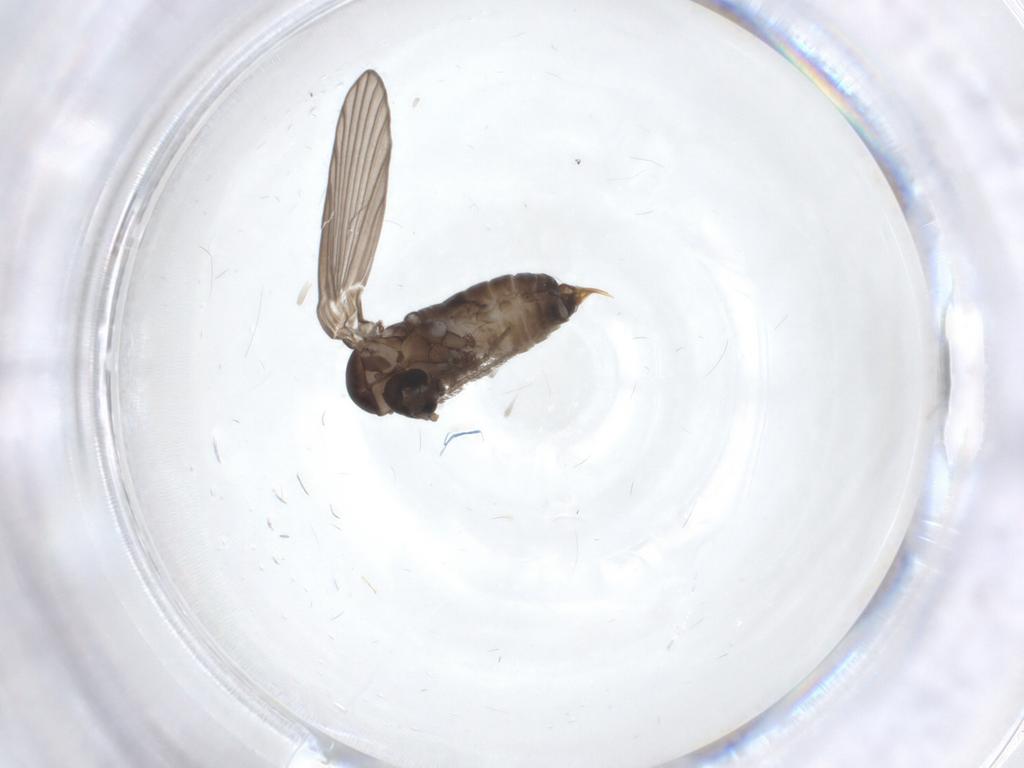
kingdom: Animalia
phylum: Arthropoda
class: Insecta
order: Diptera
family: Psychodidae
